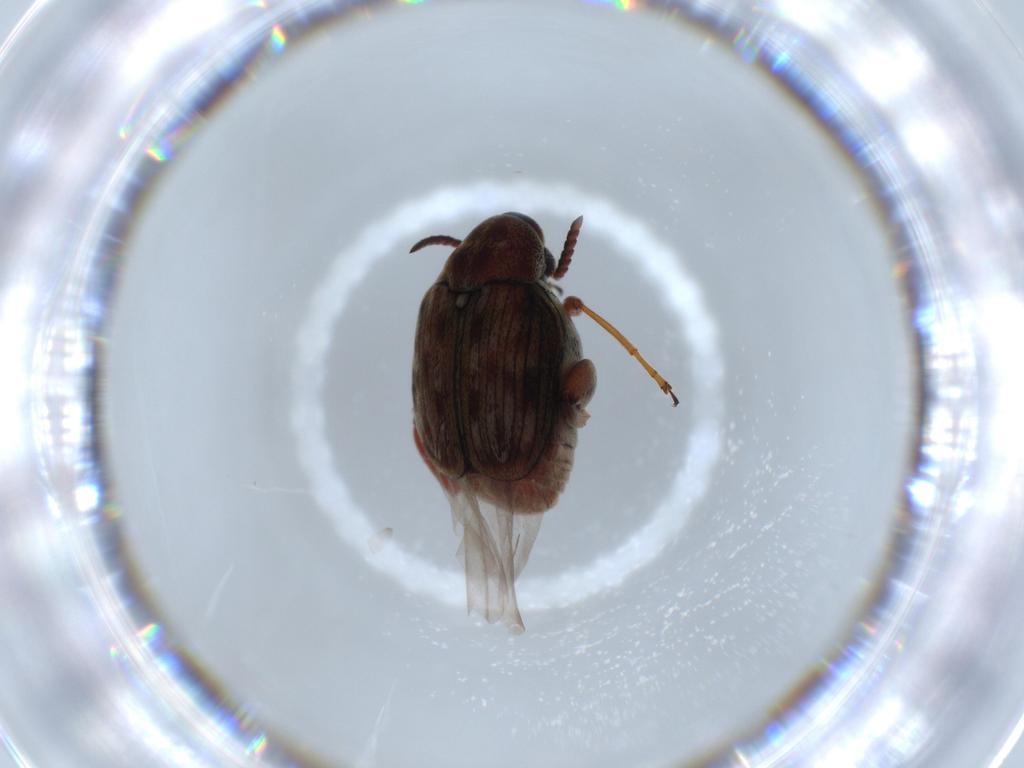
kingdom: Animalia
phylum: Arthropoda
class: Insecta
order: Coleoptera
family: Chrysomelidae
